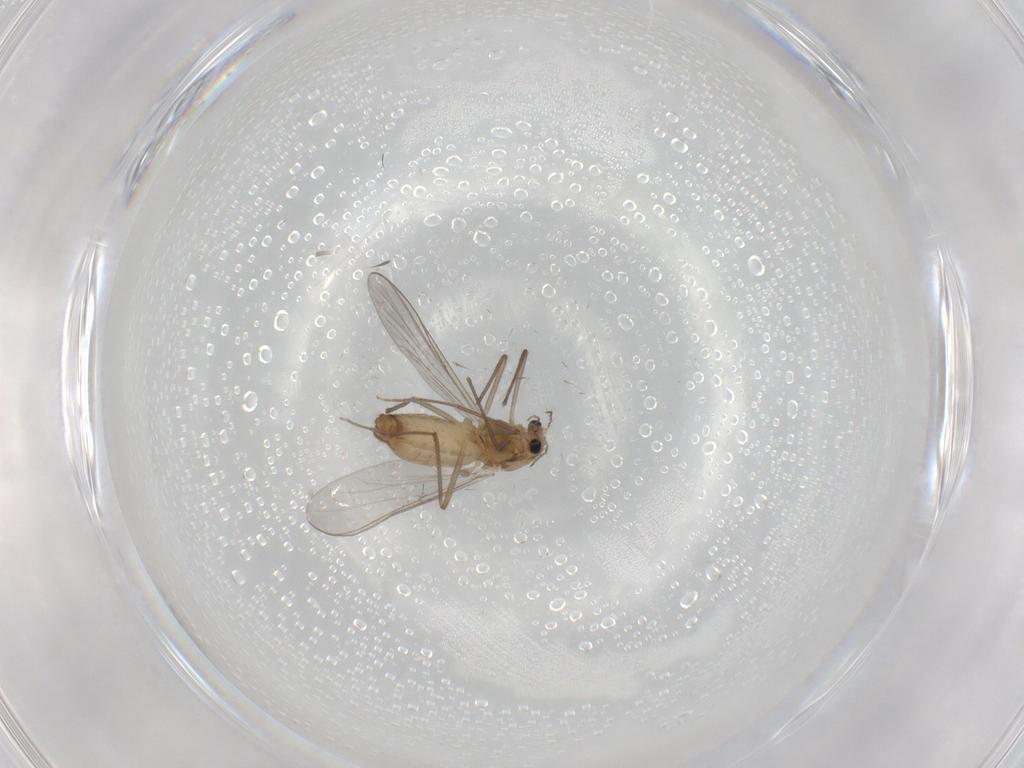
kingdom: Animalia
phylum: Arthropoda
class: Insecta
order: Diptera
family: Chironomidae
